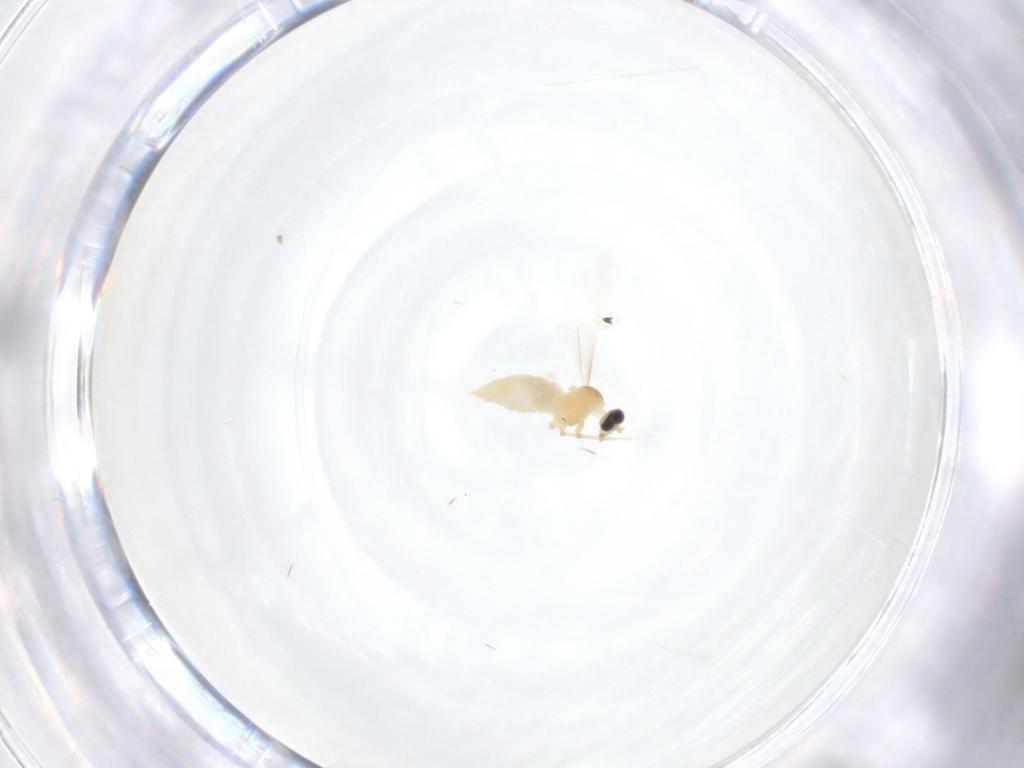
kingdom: Animalia
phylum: Arthropoda
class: Insecta
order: Diptera
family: Cecidomyiidae
